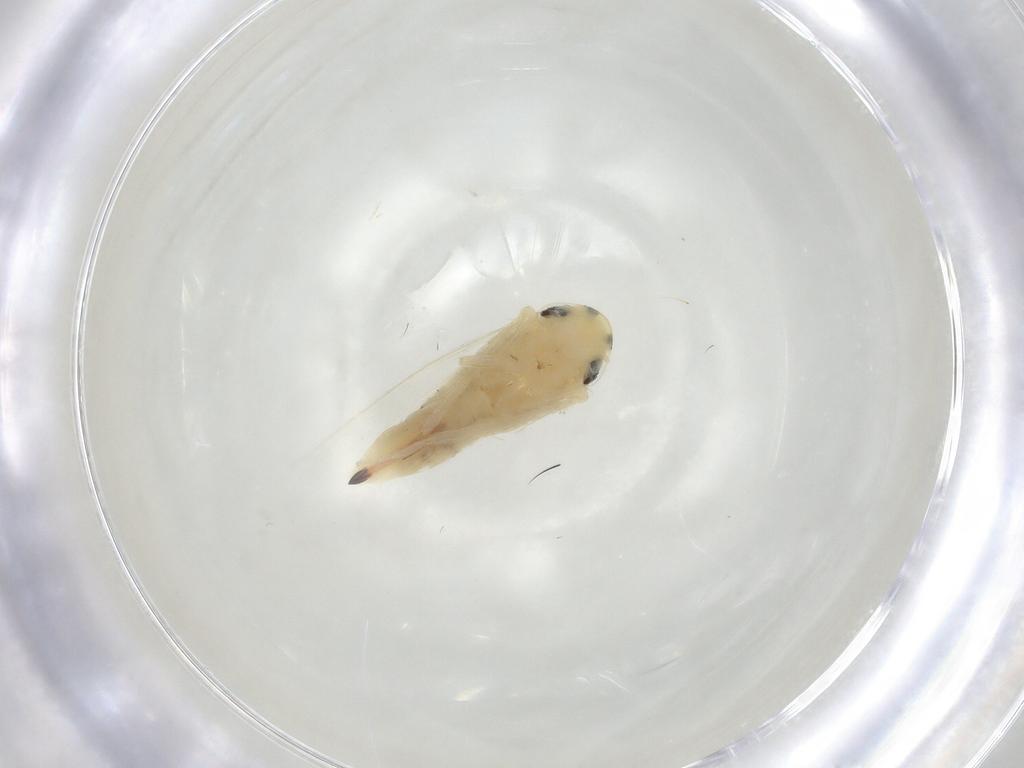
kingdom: Animalia
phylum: Arthropoda
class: Insecta
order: Hemiptera
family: Cicadellidae
